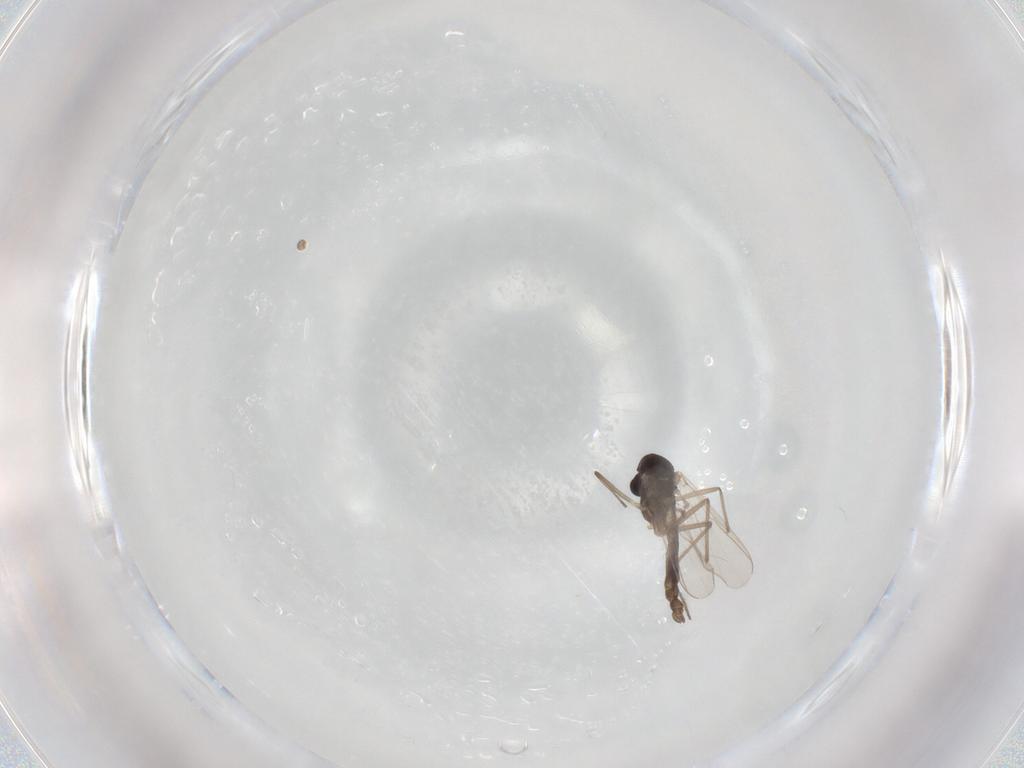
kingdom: Animalia
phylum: Arthropoda
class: Insecta
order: Diptera
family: Chironomidae
